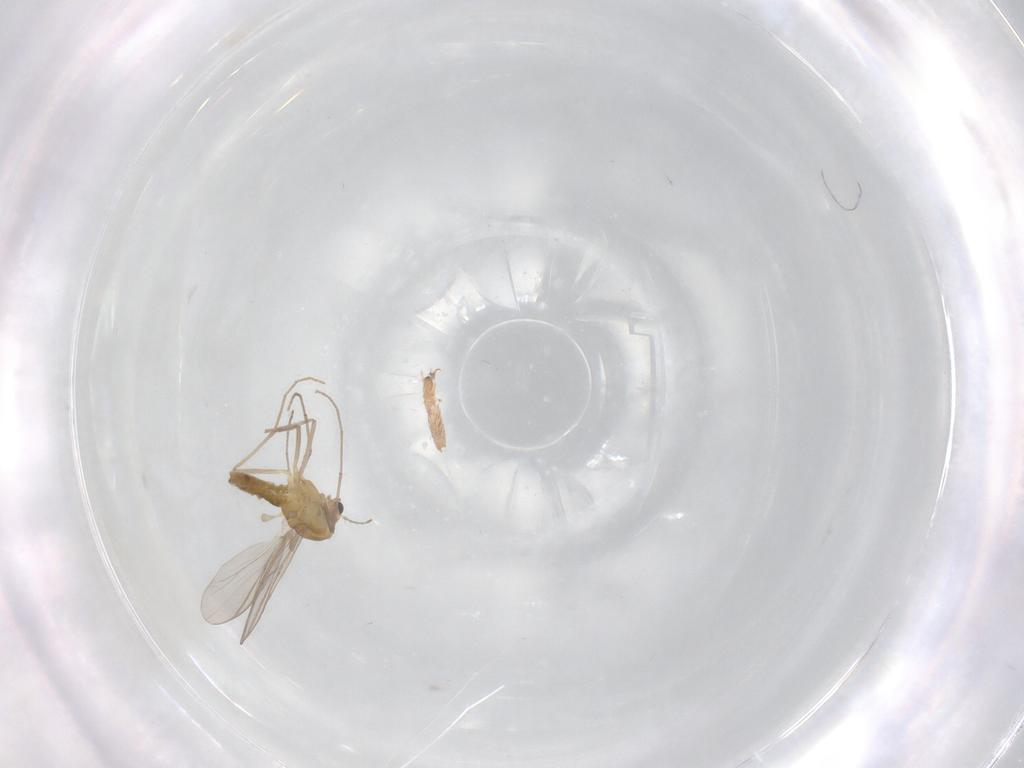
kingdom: Animalia
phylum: Arthropoda
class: Insecta
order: Diptera
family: Chironomidae
